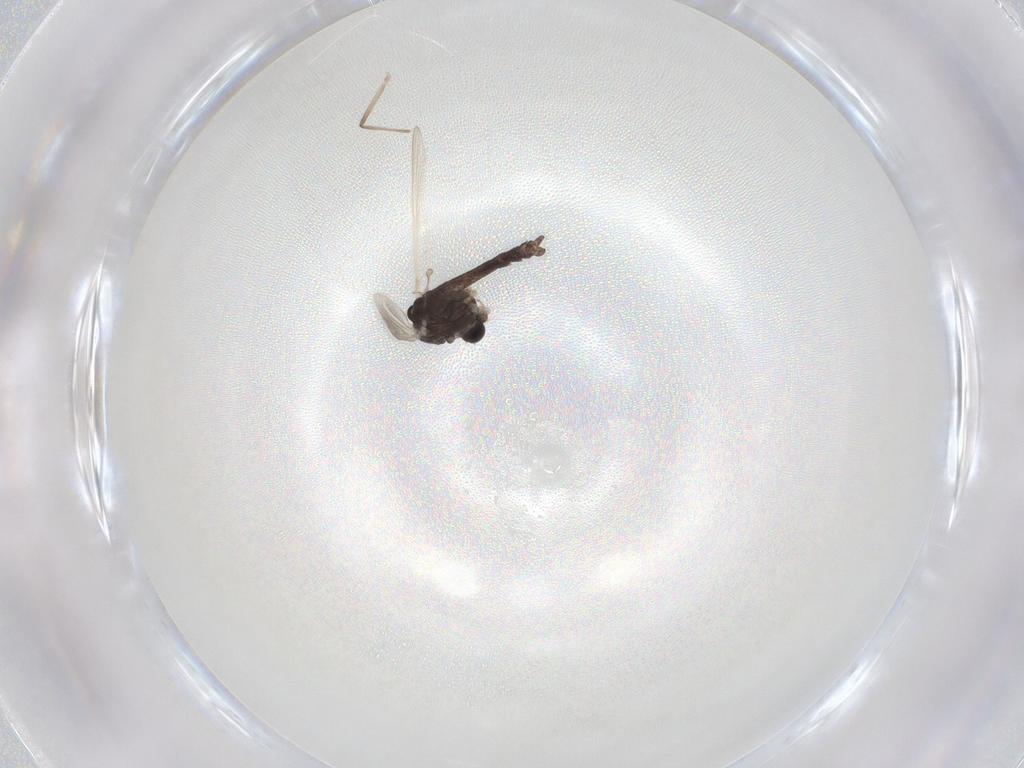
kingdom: Animalia
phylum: Arthropoda
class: Insecta
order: Diptera
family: Chironomidae
